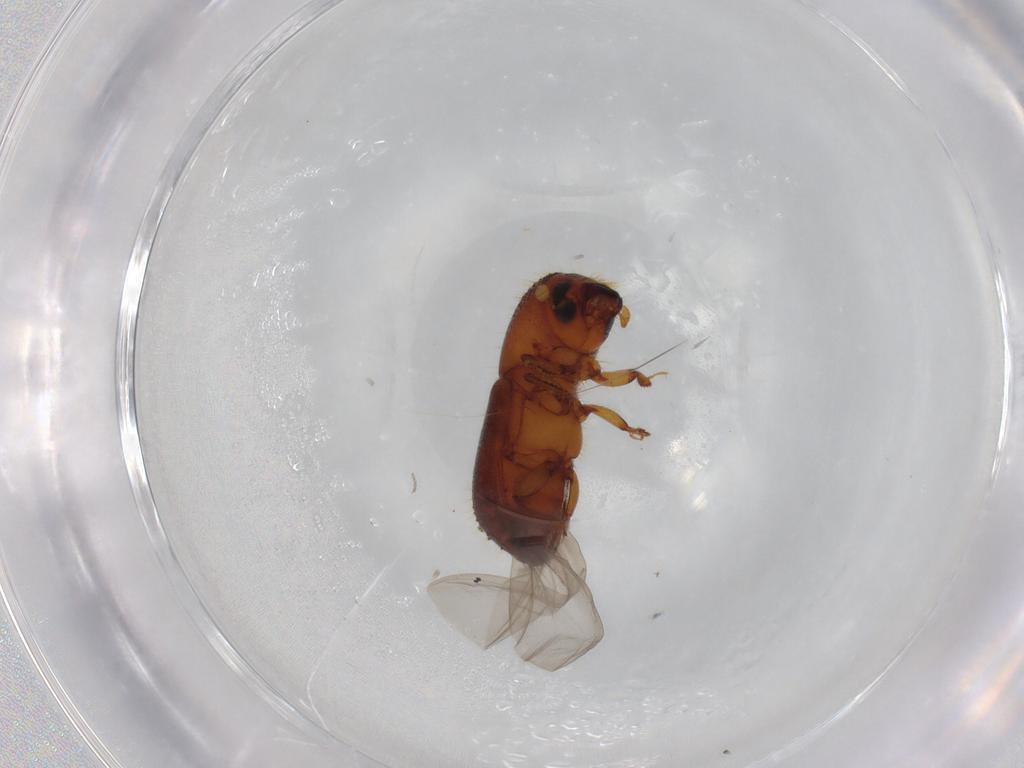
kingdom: Animalia
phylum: Arthropoda
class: Insecta
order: Coleoptera
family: Curculionidae
